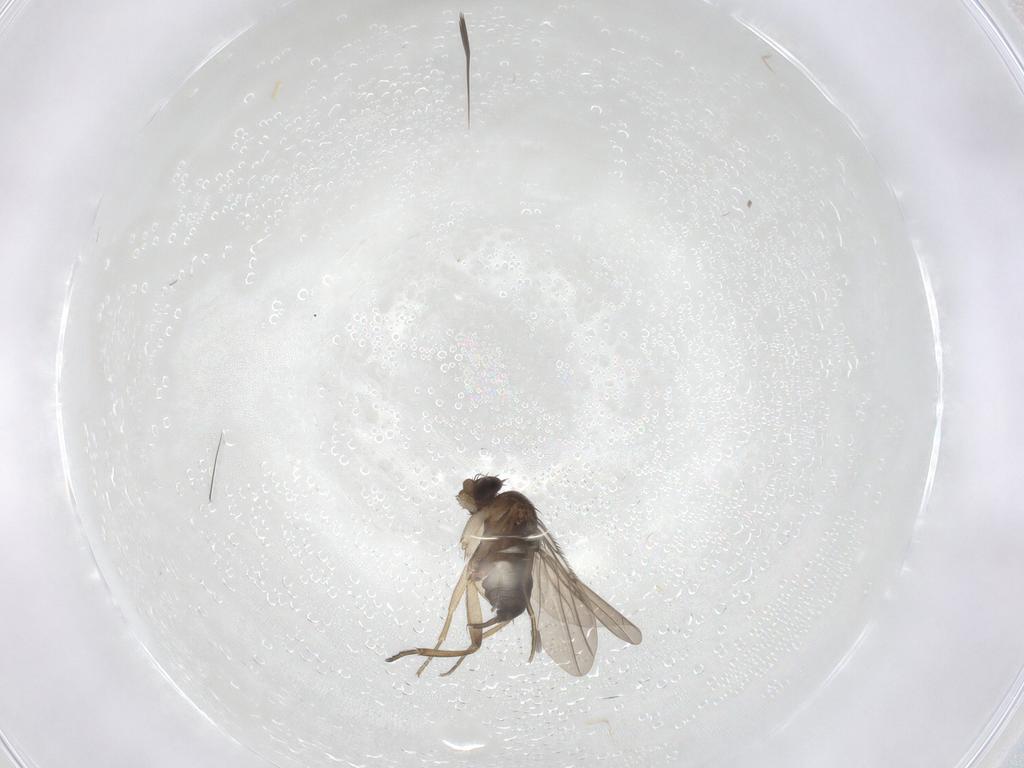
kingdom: Animalia
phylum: Arthropoda
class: Insecta
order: Diptera
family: Phoridae
